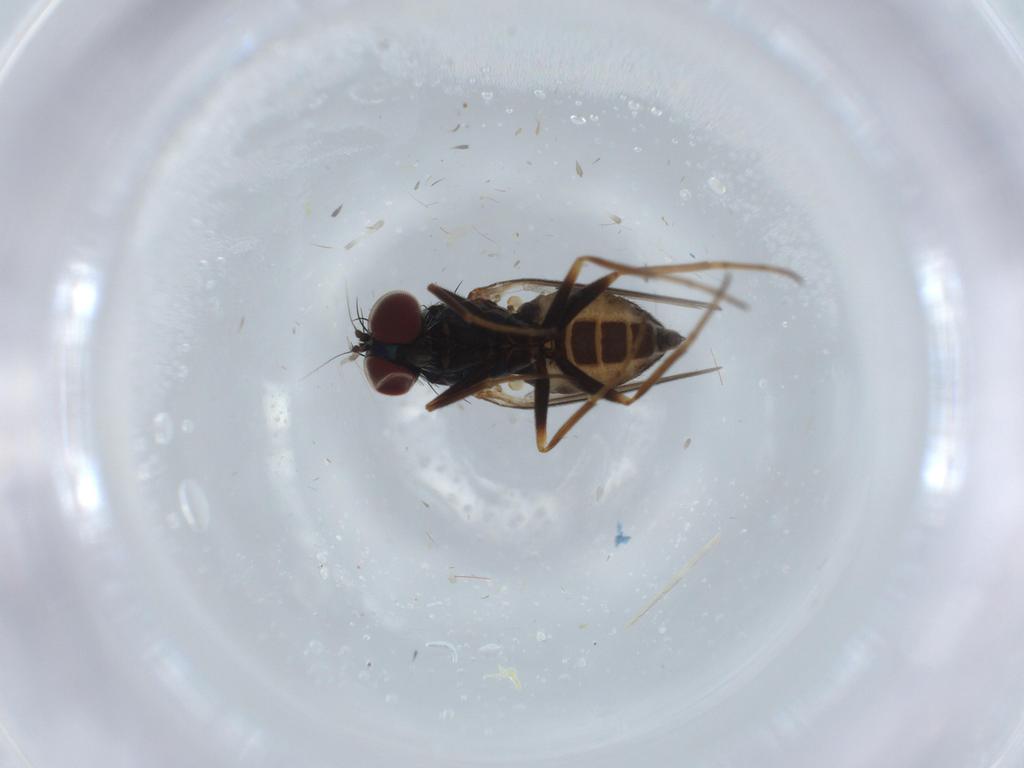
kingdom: Animalia
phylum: Arthropoda
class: Insecta
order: Diptera
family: Dolichopodidae
